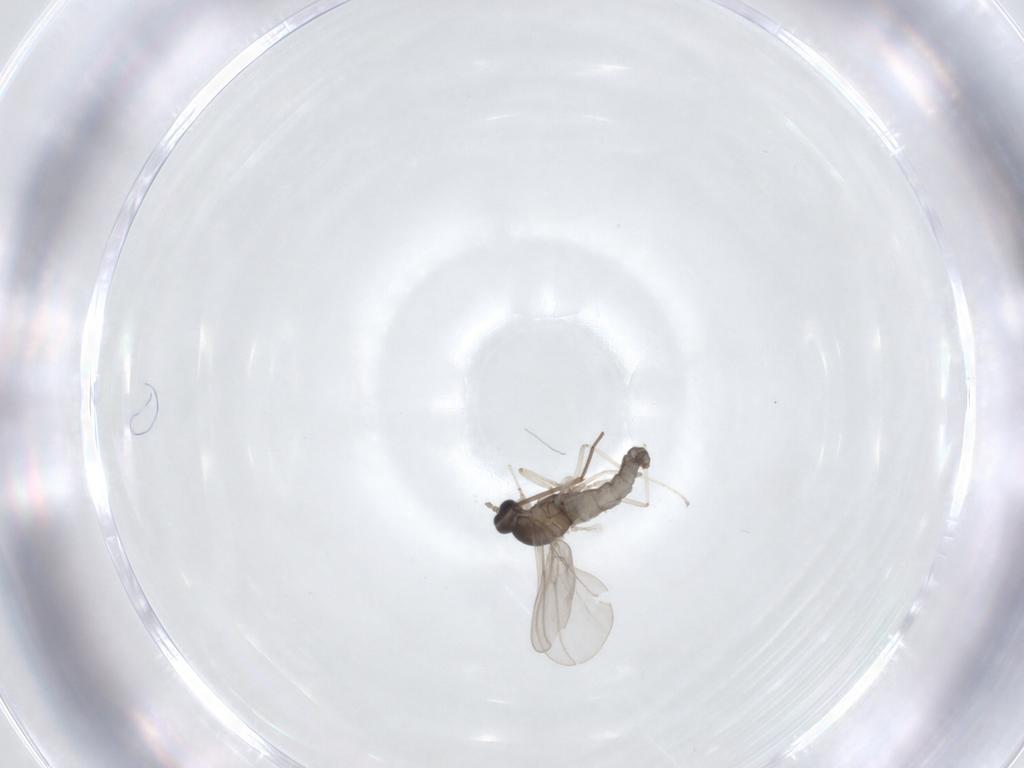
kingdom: Animalia
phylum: Arthropoda
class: Insecta
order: Diptera
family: Cecidomyiidae
